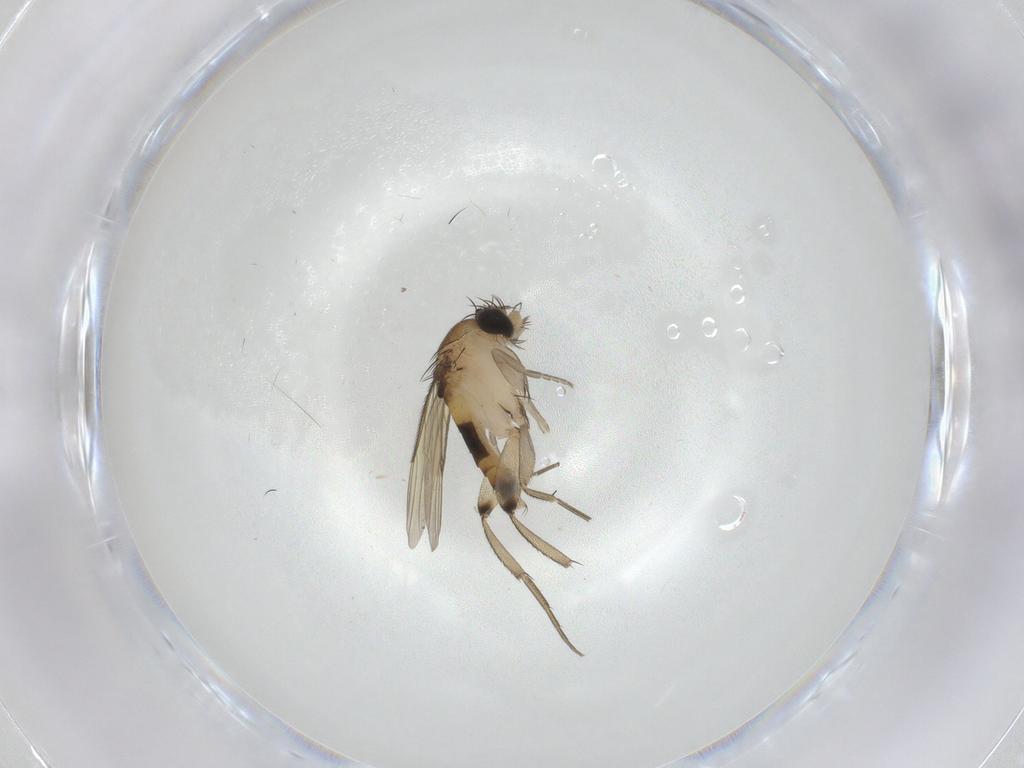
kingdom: Animalia
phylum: Arthropoda
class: Insecta
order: Diptera
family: Phoridae
